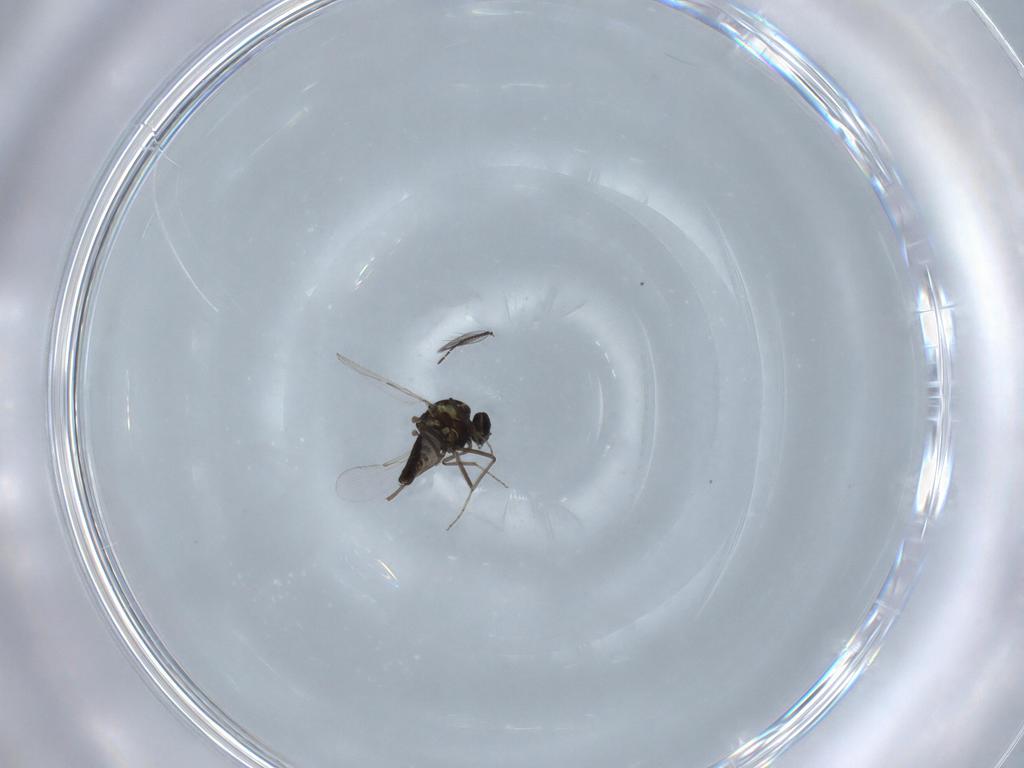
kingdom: Animalia
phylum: Arthropoda
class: Insecta
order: Diptera
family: Ceratopogonidae
